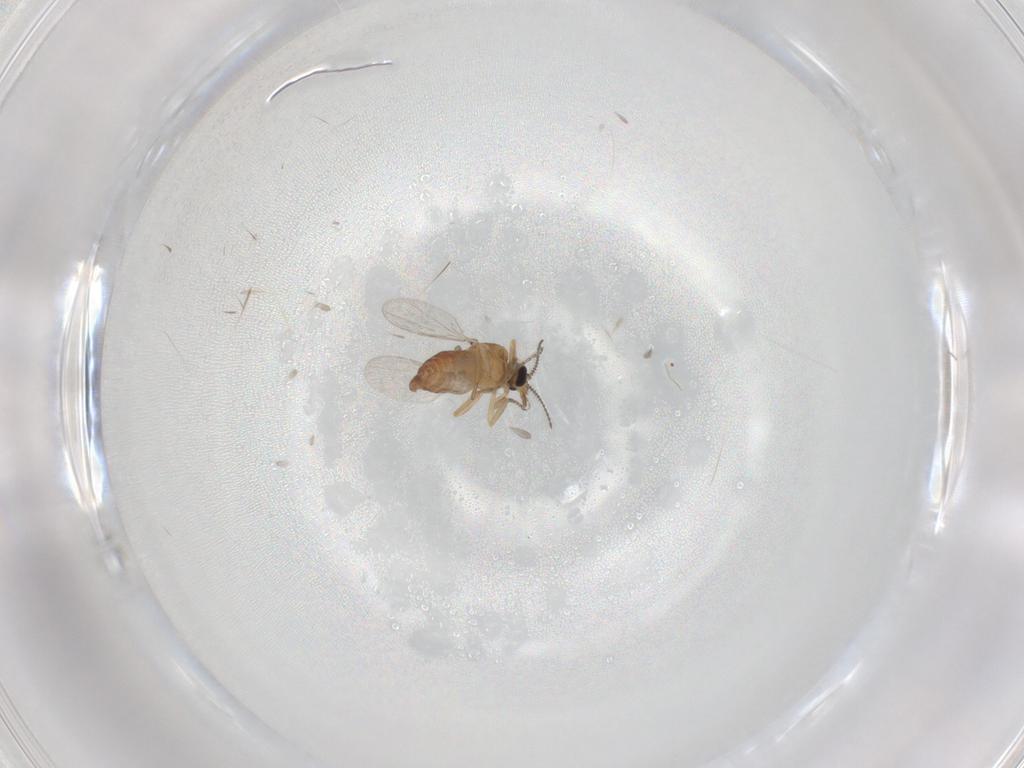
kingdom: Animalia
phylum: Arthropoda
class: Insecta
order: Diptera
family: Ceratopogonidae
